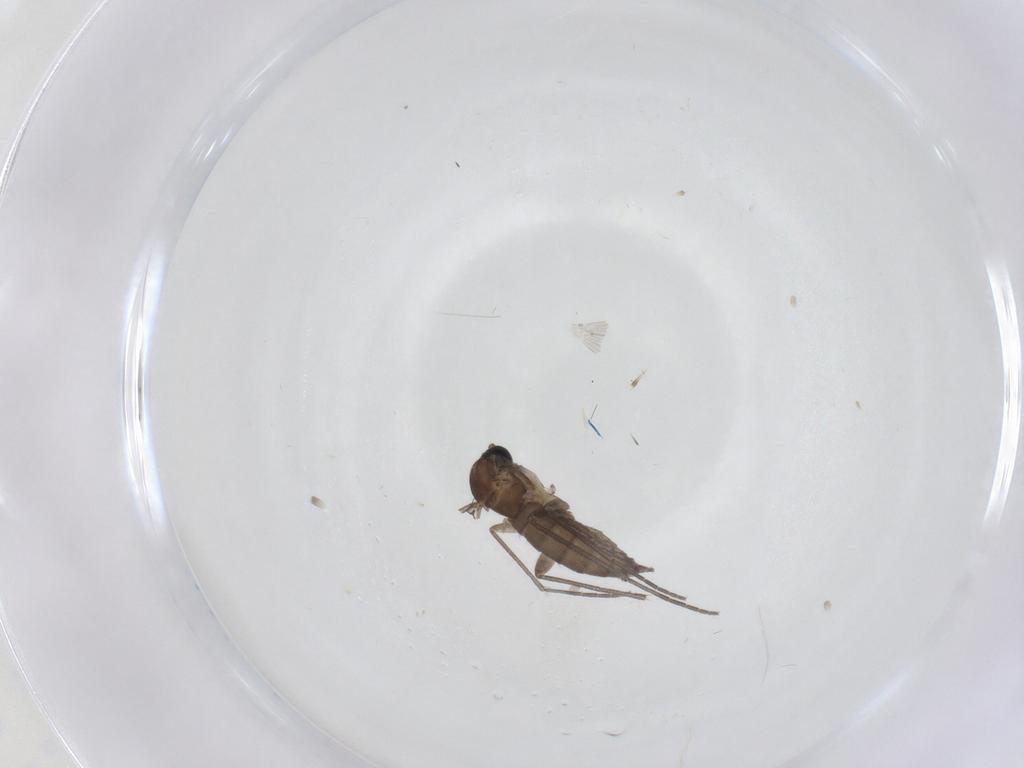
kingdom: Animalia
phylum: Arthropoda
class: Insecta
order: Diptera
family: Sciaridae
